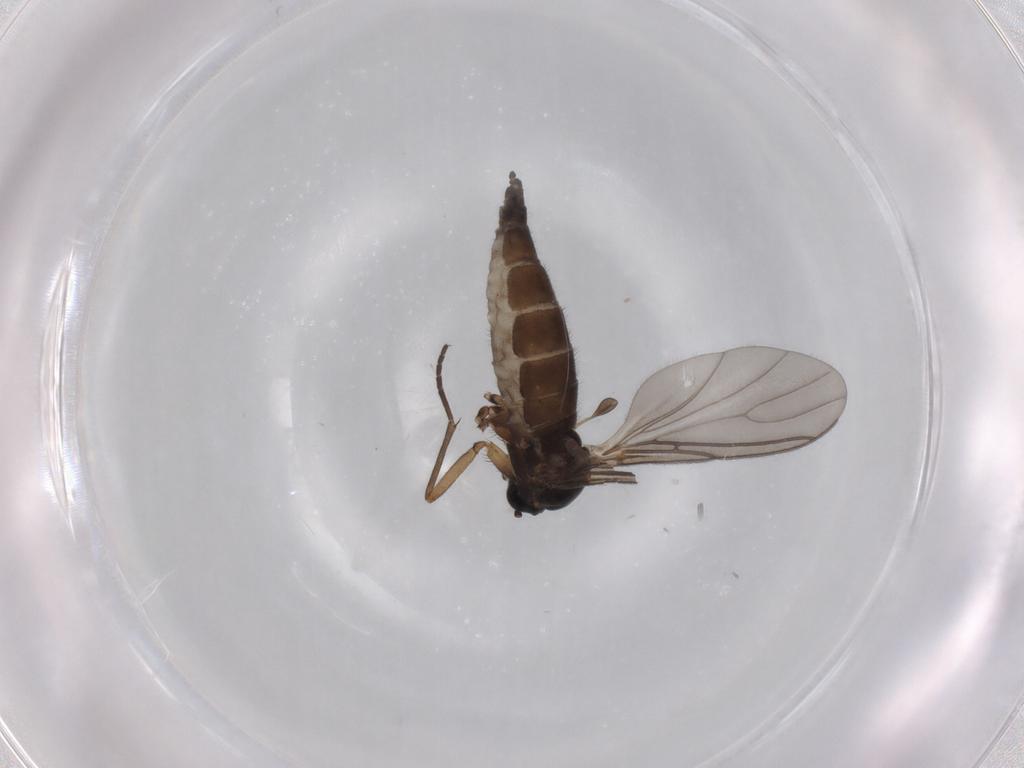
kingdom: Animalia
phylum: Arthropoda
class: Insecta
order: Diptera
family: Sciaridae
